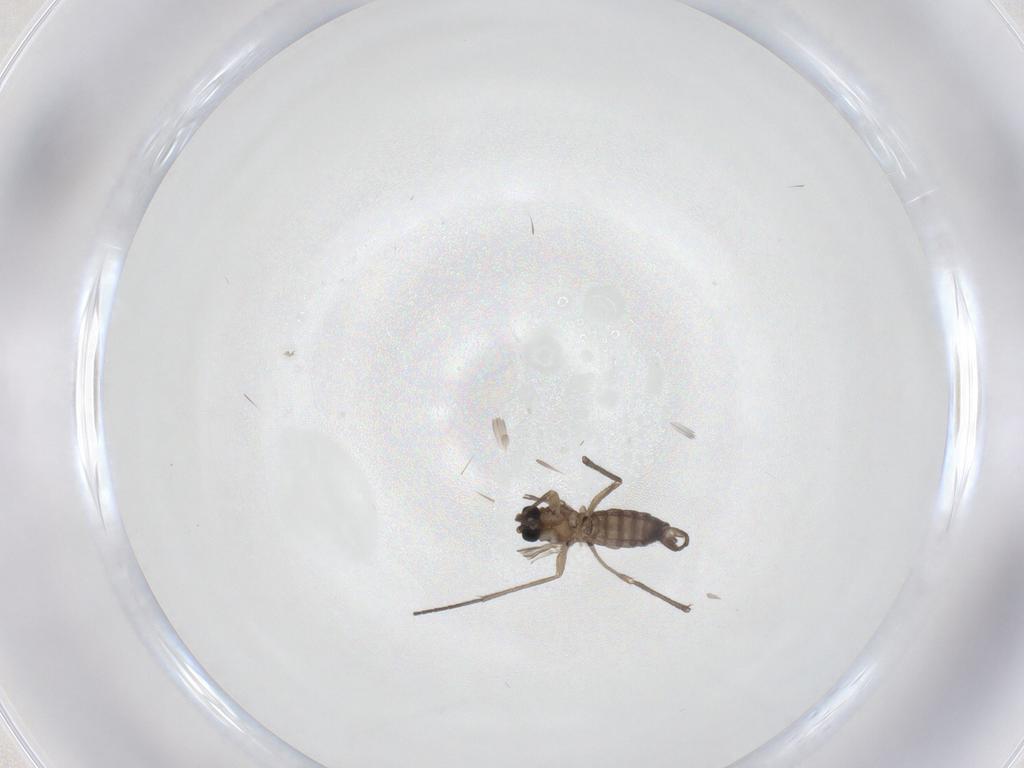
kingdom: Animalia
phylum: Arthropoda
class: Insecta
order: Diptera
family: Sciaridae
